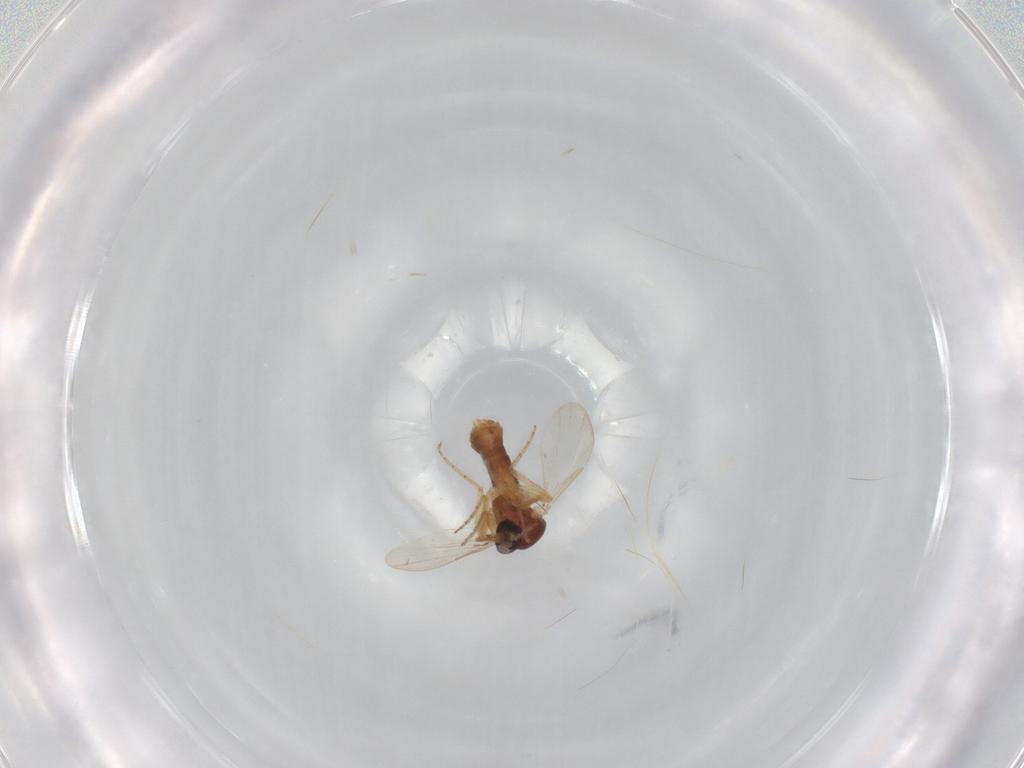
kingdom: Animalia
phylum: Arthropoda
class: Insecta
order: Diptera
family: Ceratopogonidae
